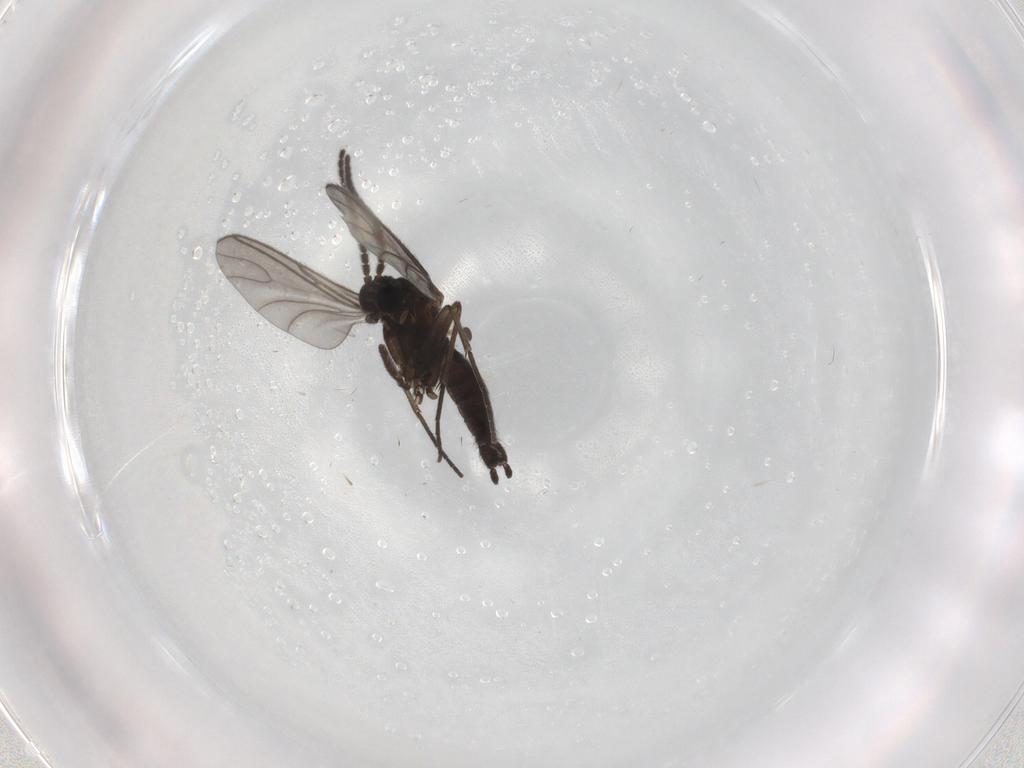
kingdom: Animalia
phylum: Arthropoda
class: Insecta
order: Diptera
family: Sciaridae
